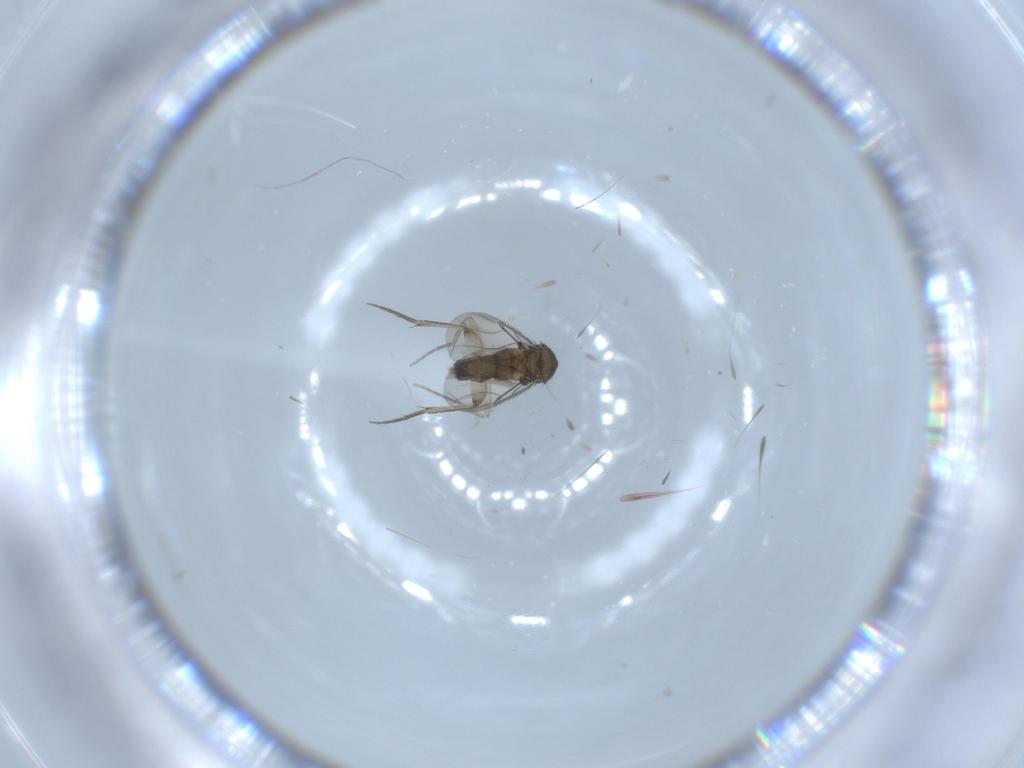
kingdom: Animalia
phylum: Arthropoda
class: Insecta
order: Diptera
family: Phoridae
